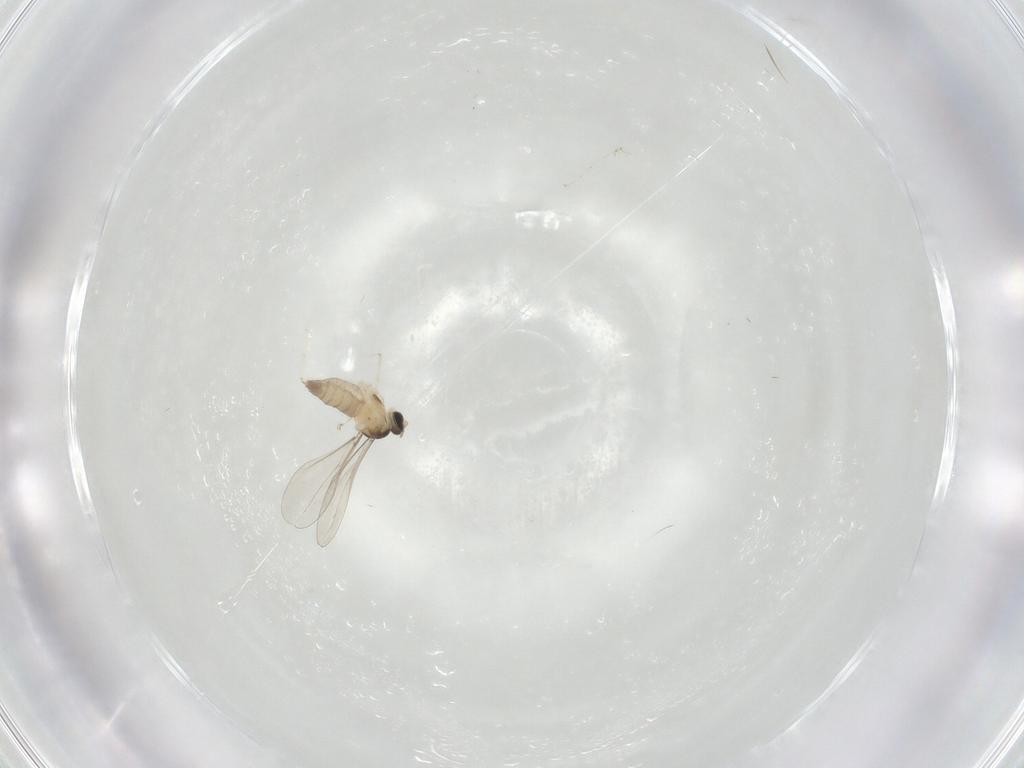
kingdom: Animalia
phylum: Arthropoda
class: Insecta
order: Diptera
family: Cecidomyiidae
